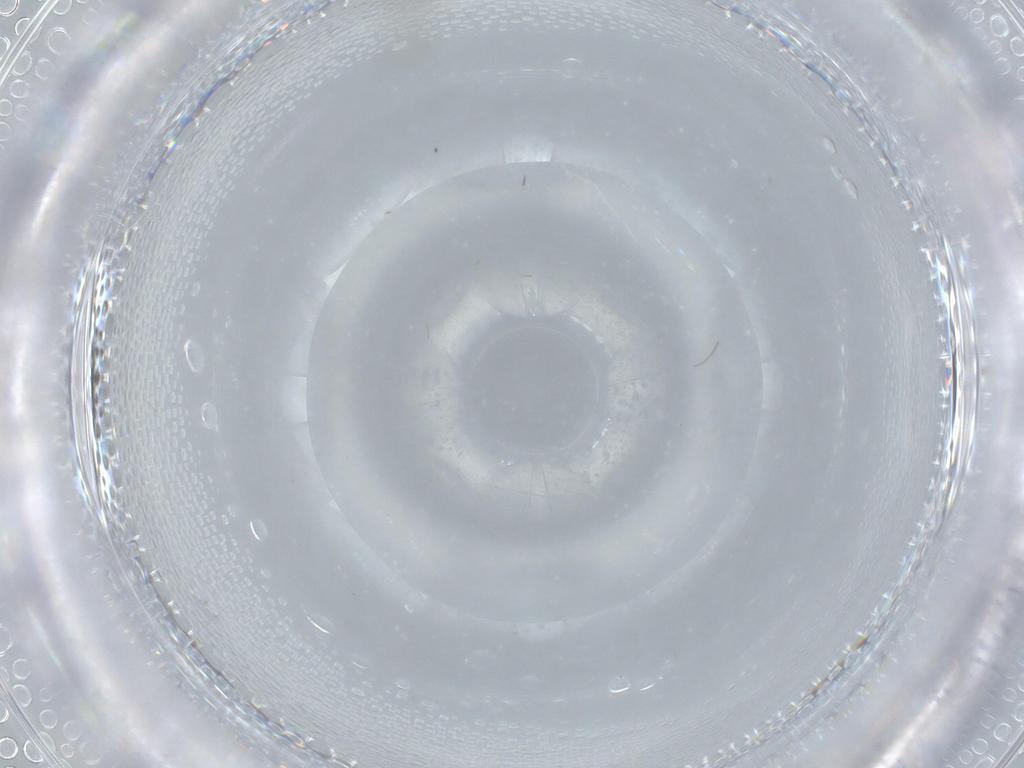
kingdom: Animalia
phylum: Arthropoda
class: Insecta
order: Diptera
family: Chironomidae
